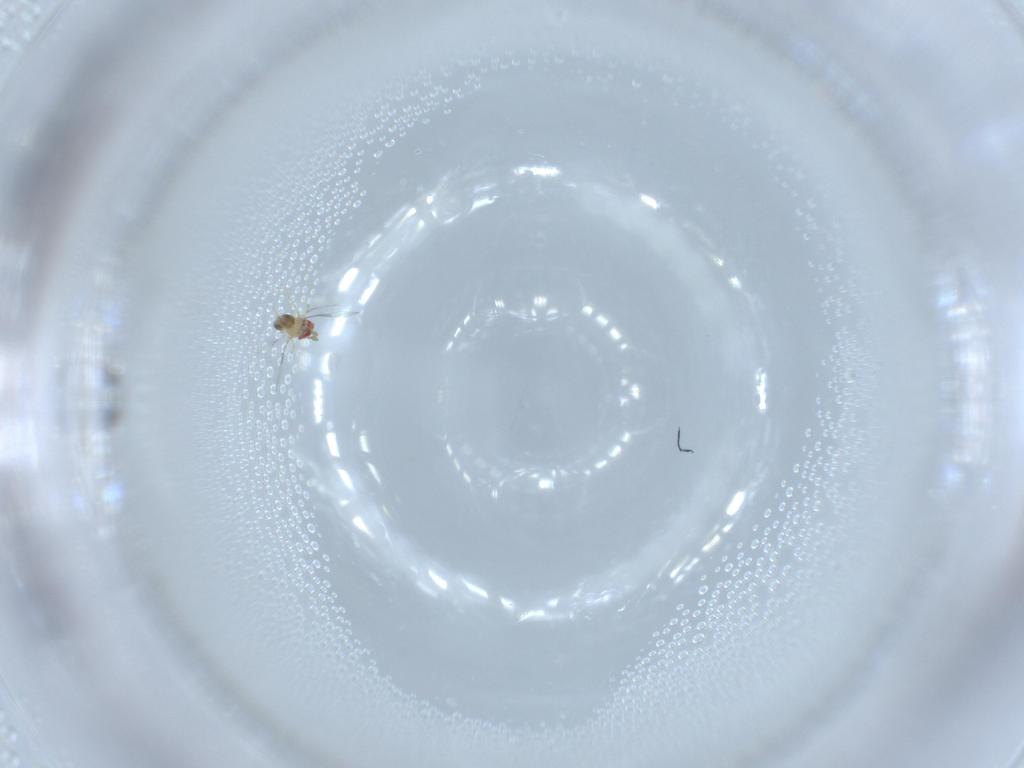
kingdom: Animalia
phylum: Arthropoda
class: Insecta
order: Hymenoptera
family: Trichogrammatidae
